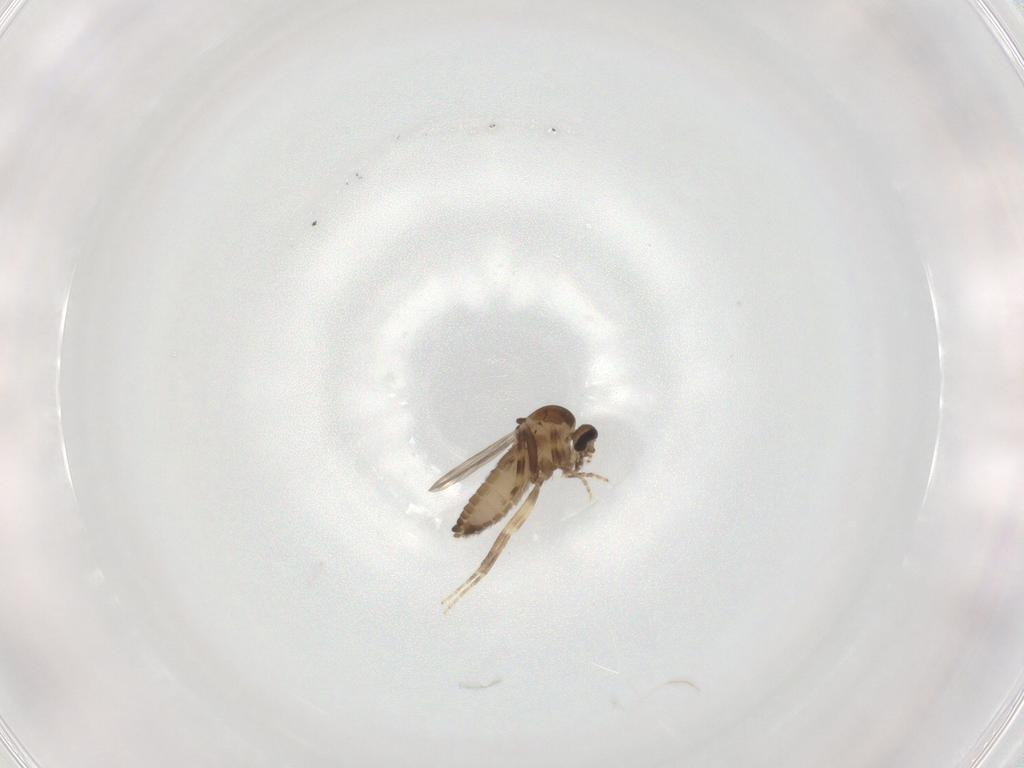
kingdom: Animalia
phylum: Arthropoda
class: Insecta
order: Diptera
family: Ceratopogonidae
